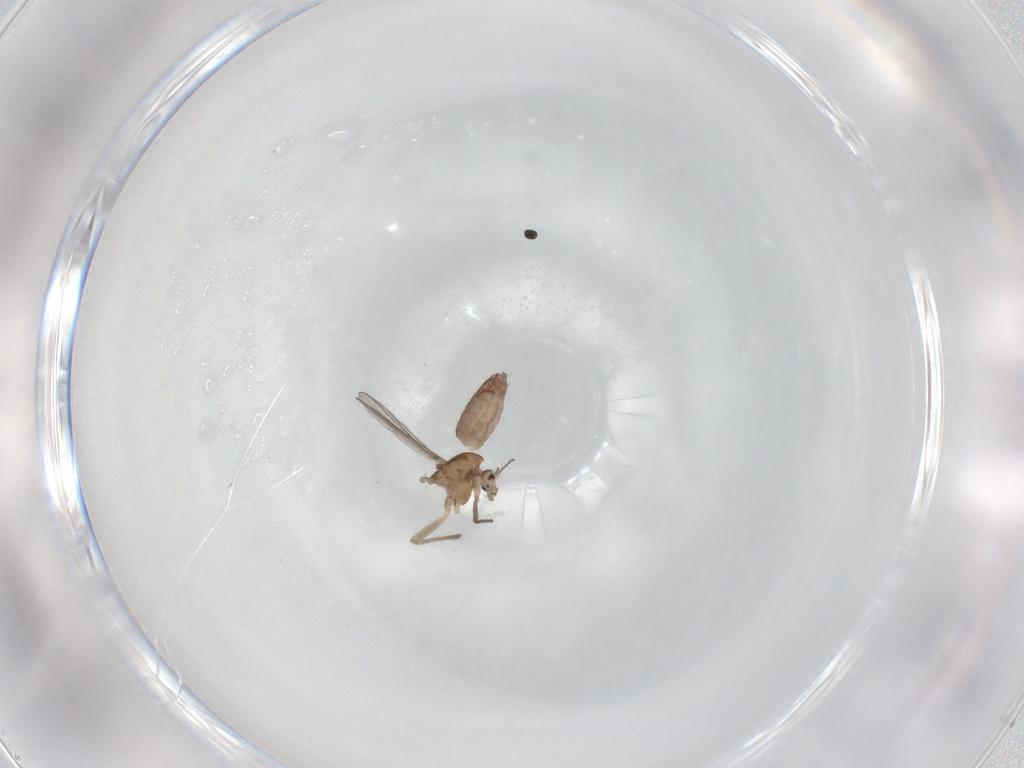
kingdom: Animalia
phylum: Arthropoda
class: Insecta
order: Diptera
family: Chironomidae
